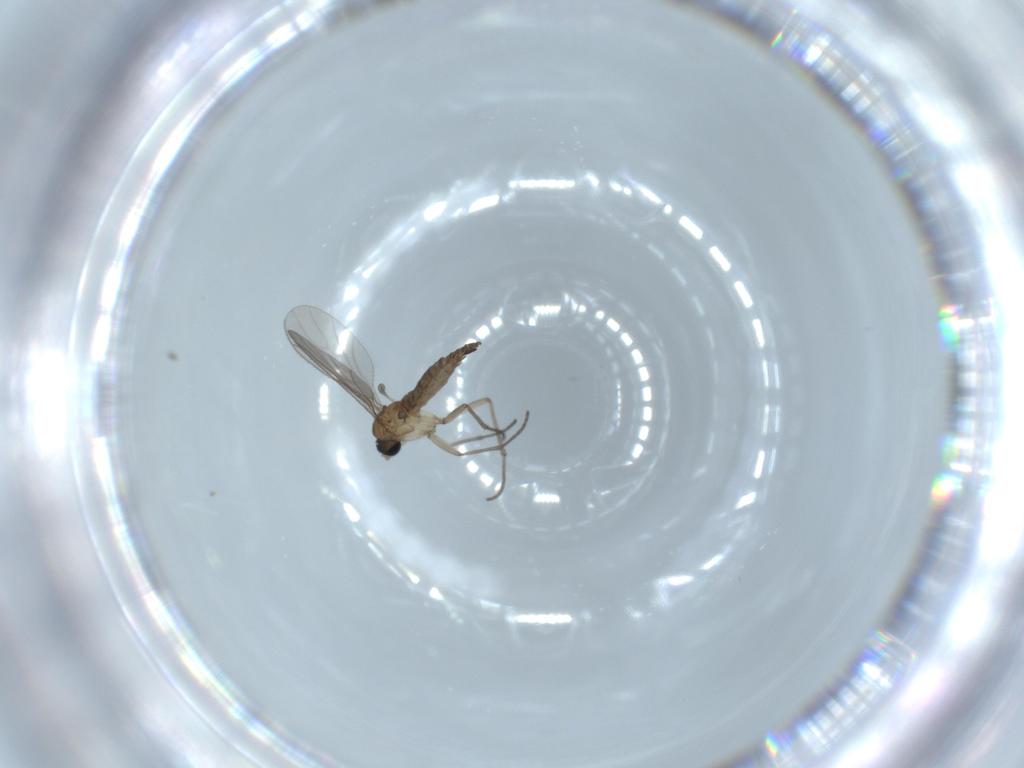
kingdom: Animalia
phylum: Arthropoda
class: Insecta
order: Diptera
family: Sciaridae
